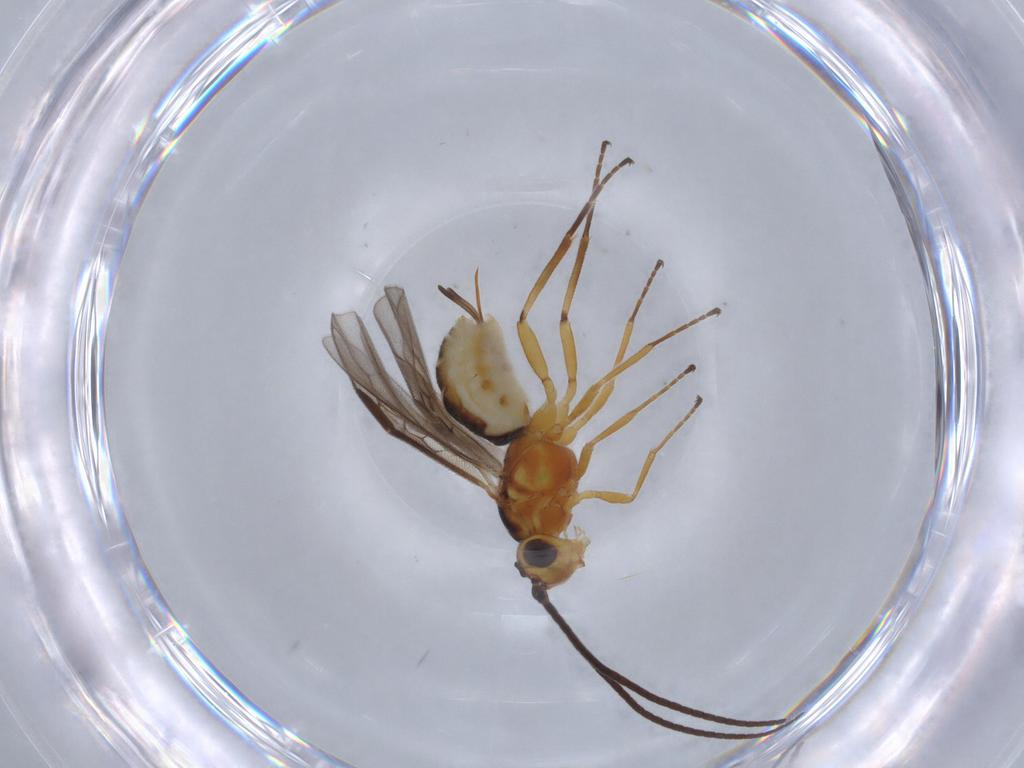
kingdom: Animalia
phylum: Arthropoda
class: Insecta
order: Hymenoptera
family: Braconidae
